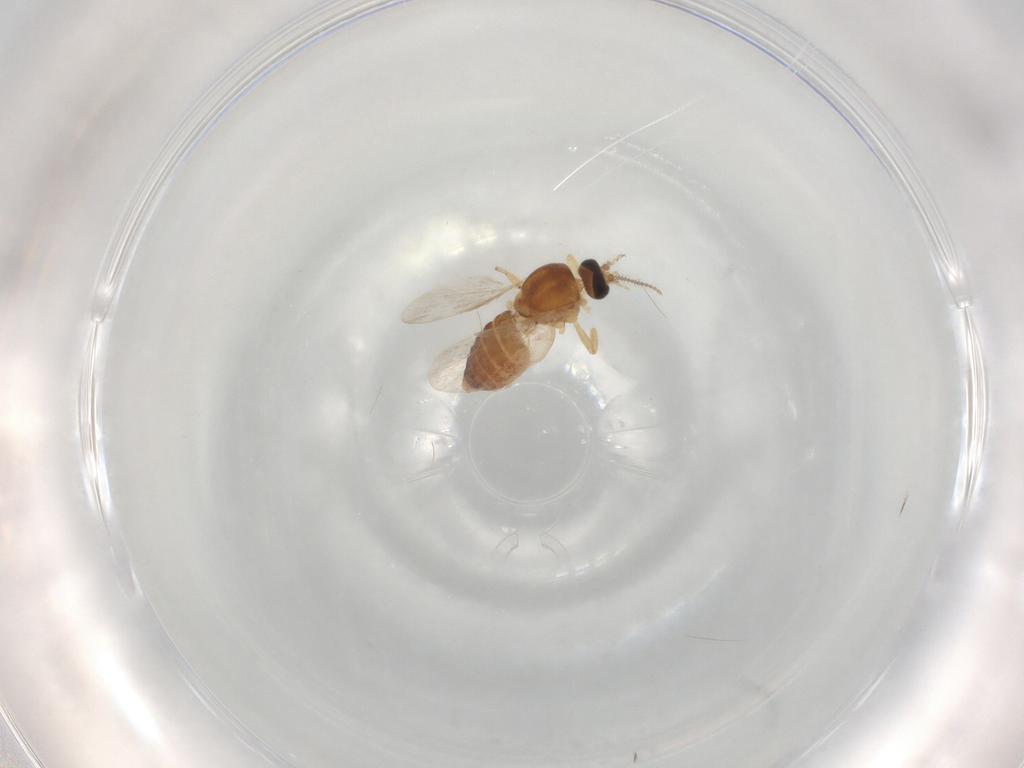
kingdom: Animalia
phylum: Arthropoda
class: Insecta
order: Diptera
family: Ceratopogonidae
